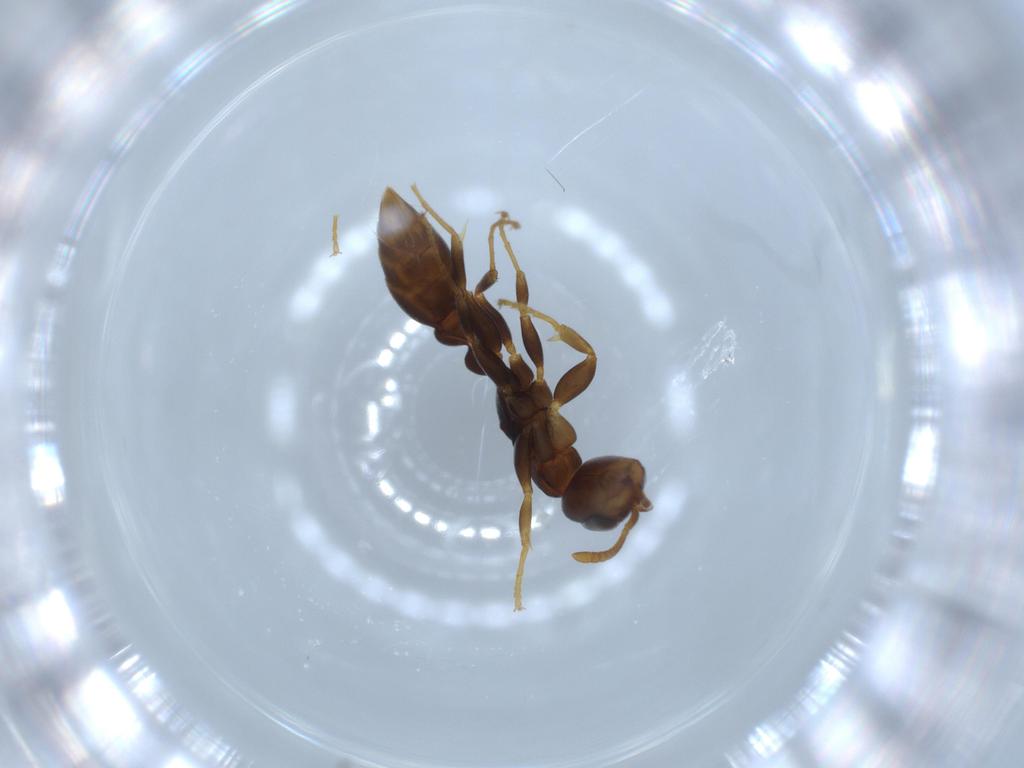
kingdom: Animalia
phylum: Arthropoda
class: Insecta
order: Hymenoptera
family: Formicidae
